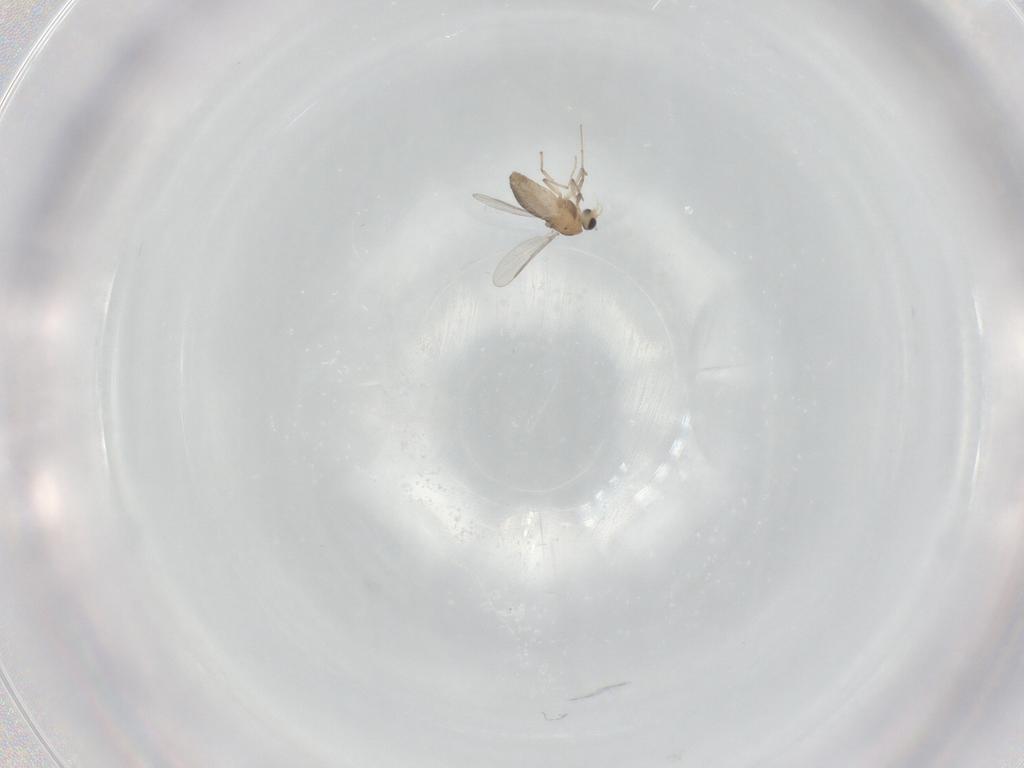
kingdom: Animalia
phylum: Arthropoda
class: Insecta
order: Diptera
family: Chironomidae
